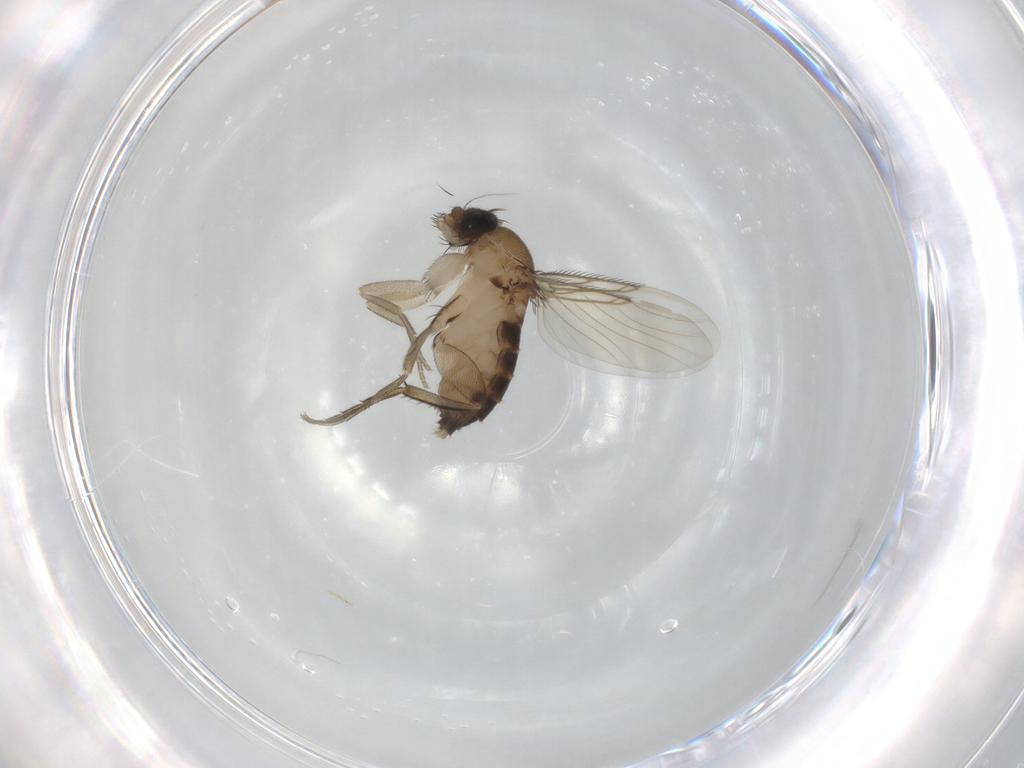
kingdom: Animalia
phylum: Arthropoda
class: Insecta
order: Diptera
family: Phoridae
